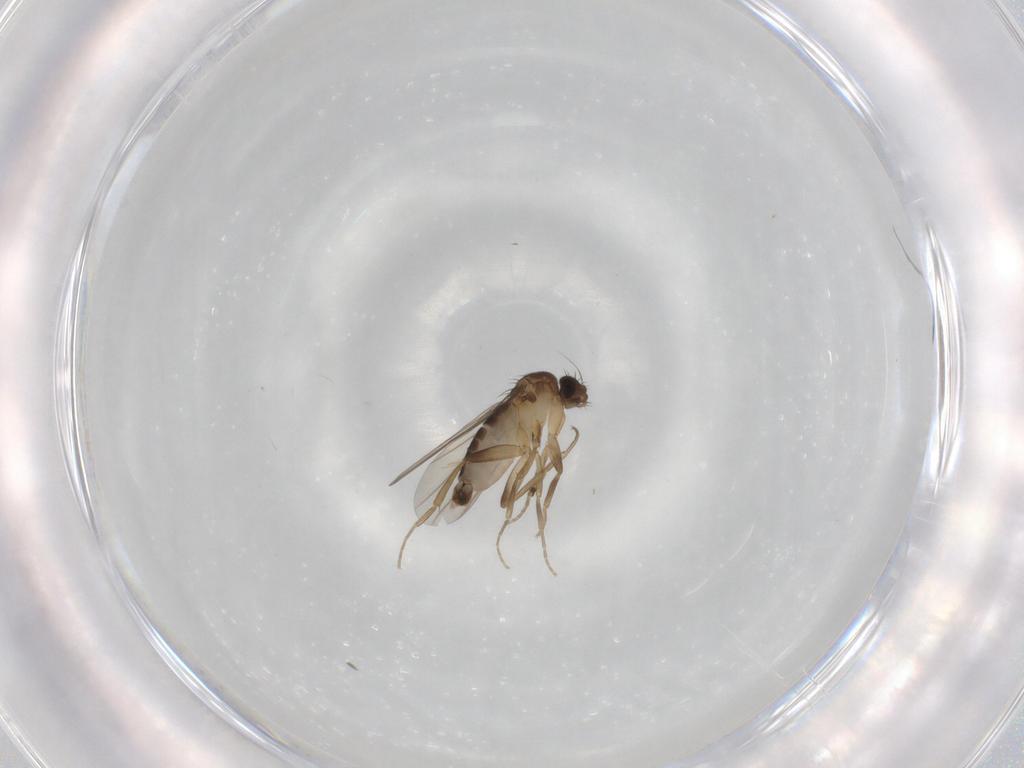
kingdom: Animalia
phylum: Arthropoda
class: Insecta
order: Diptera
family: Phoridae
